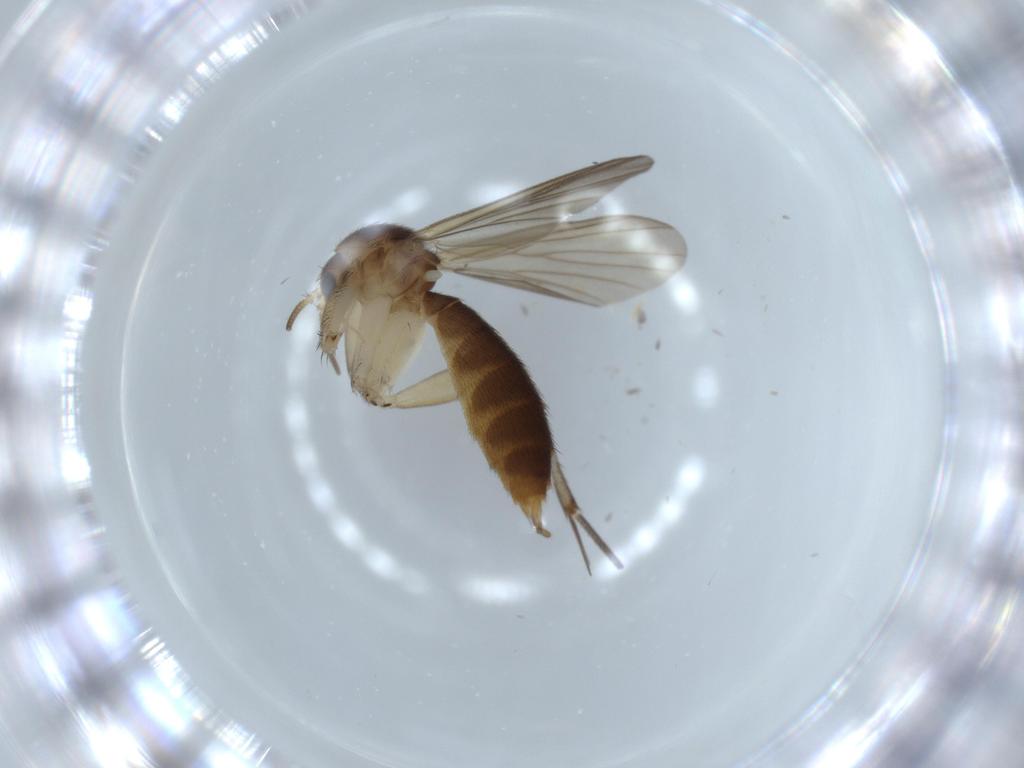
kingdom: Animalia
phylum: Arthropoda
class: Insecta
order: Diptera
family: Mycetophilidae
